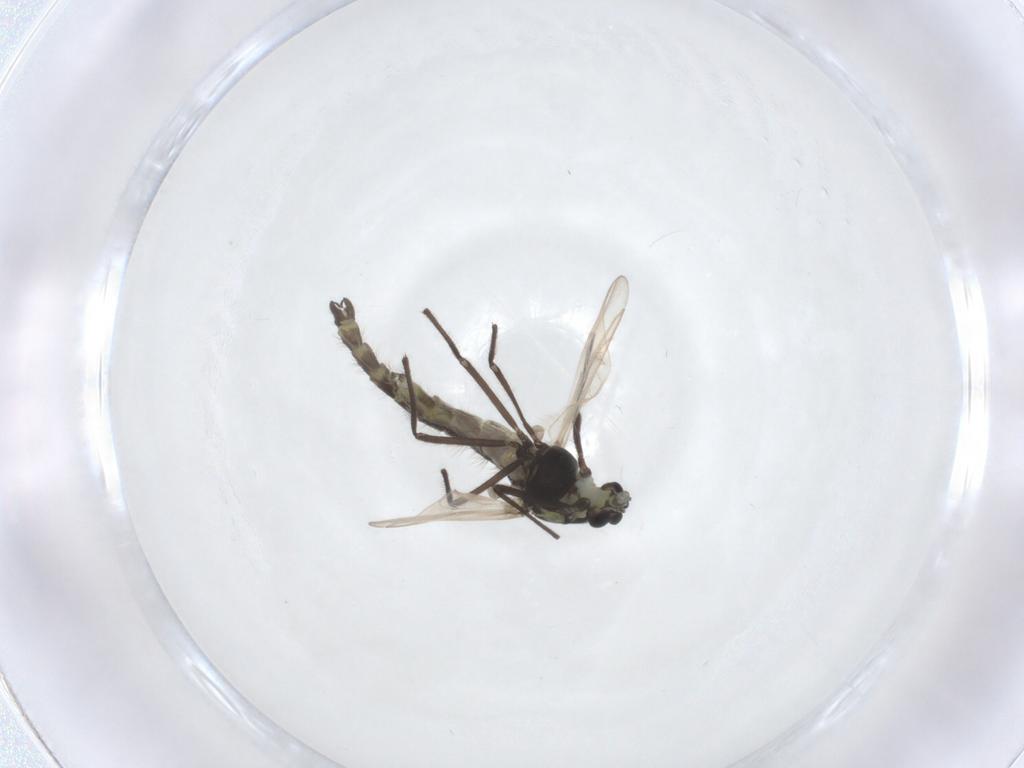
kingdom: Animalia
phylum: Arthropoda
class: Insecta
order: Diptera
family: Chironomidae
